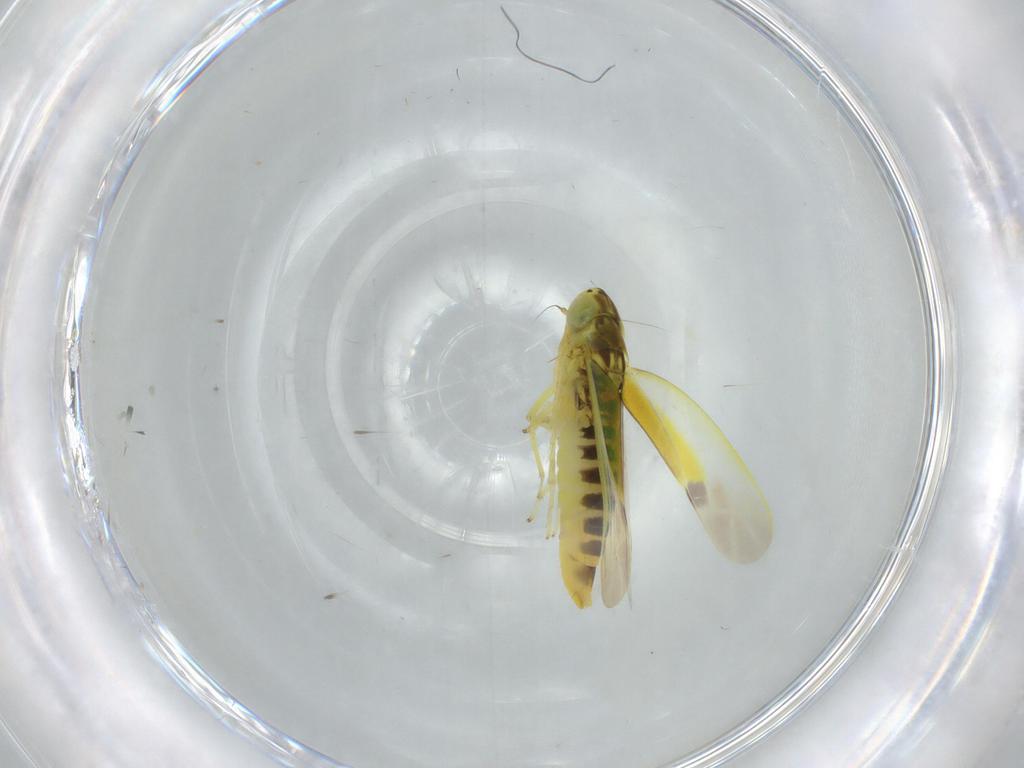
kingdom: Animalia
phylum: Arthropoda
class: Insecta
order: Hemiptera
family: Cicadellidae
